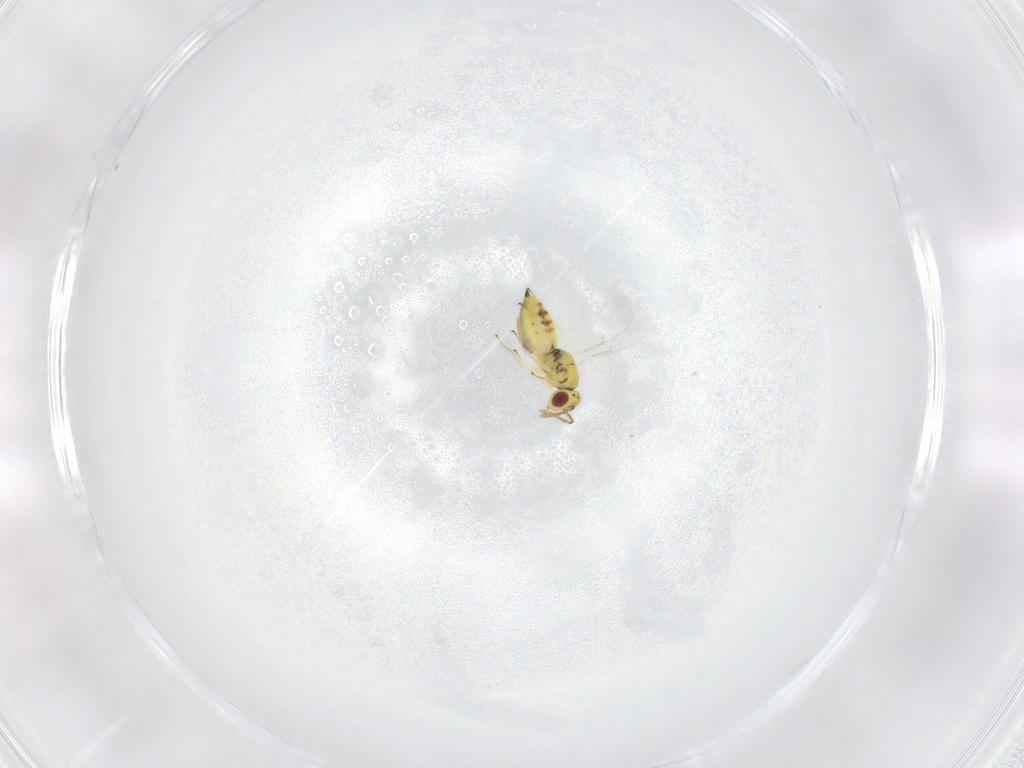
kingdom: Animalia
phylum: Arthropoda
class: Insecta
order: Hymenoptera
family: Eulophidae
